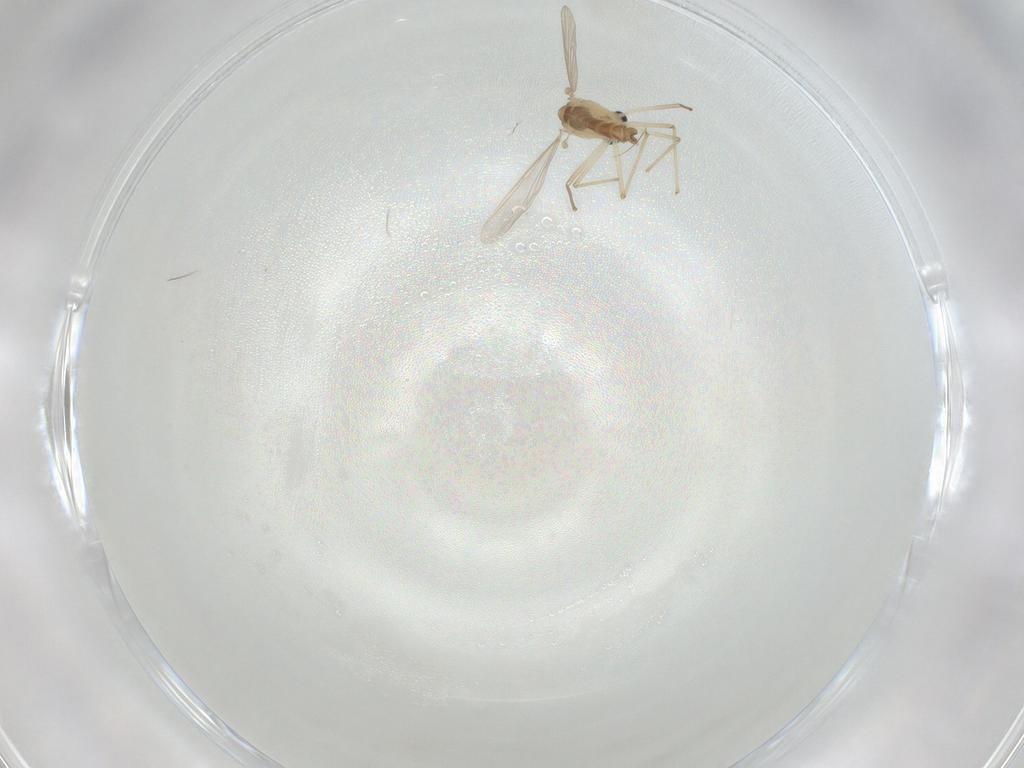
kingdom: Animalia
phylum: Arthropoda
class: Insecta
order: Diptera
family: Chironomidae
